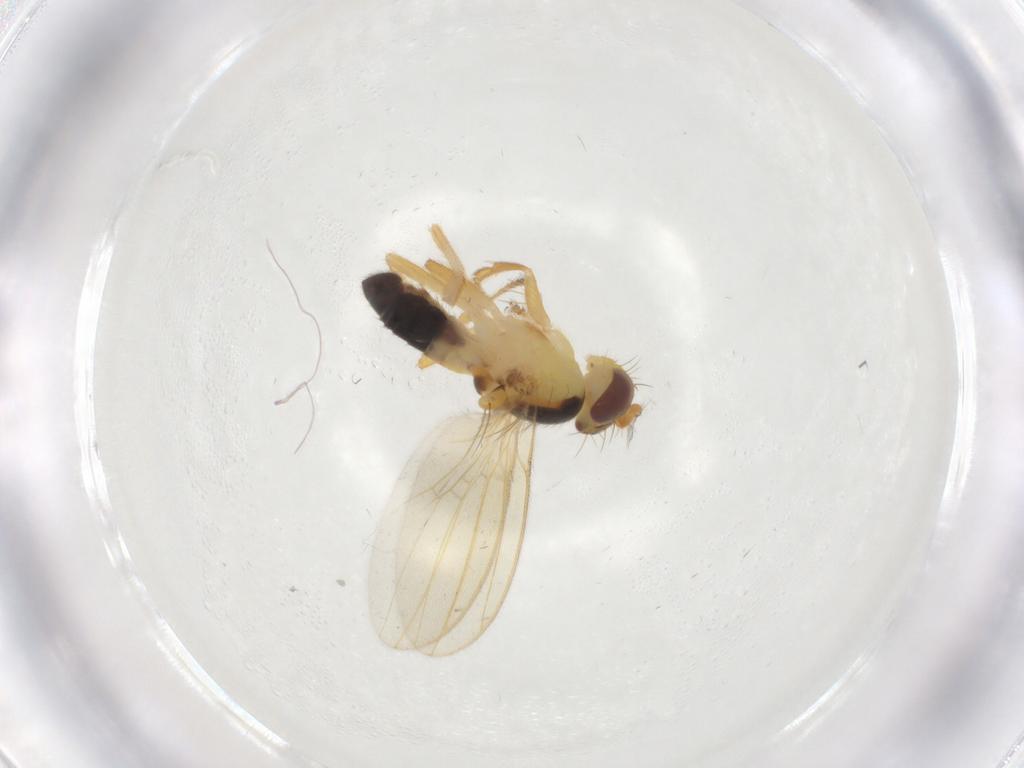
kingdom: Animalia
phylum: Arthropoda
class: Insecta
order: Diptera
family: Periscelididae
